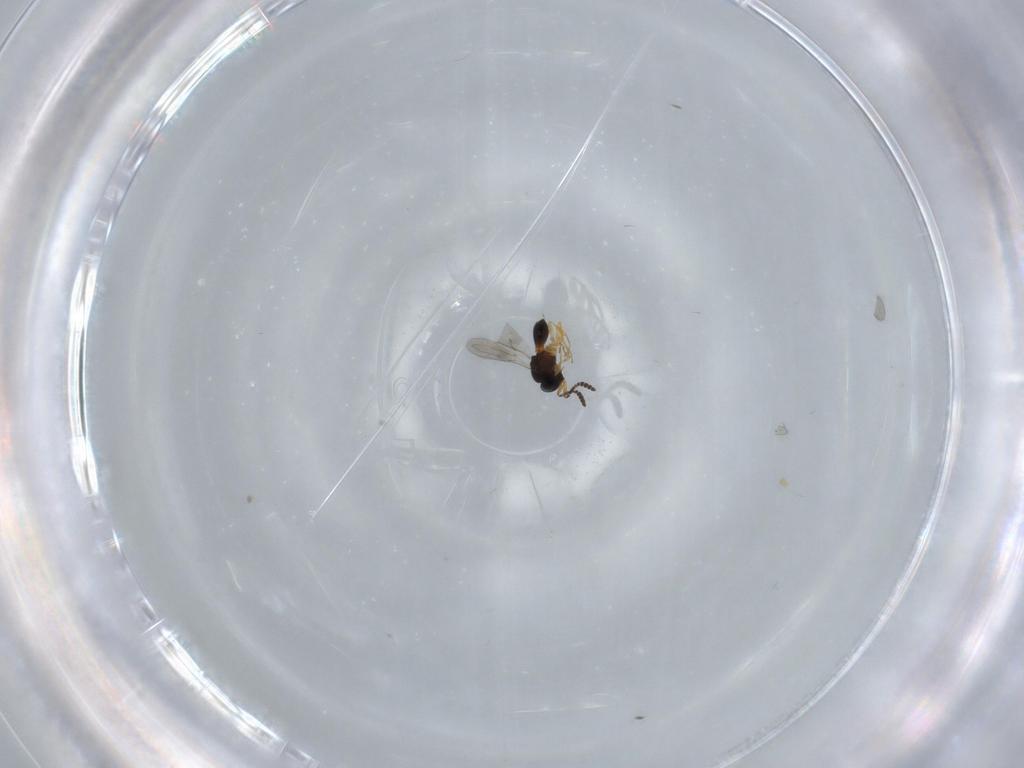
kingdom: Animalia
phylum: Arthropoda
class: Insecta
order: Hymenoptera
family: Scelionidae
